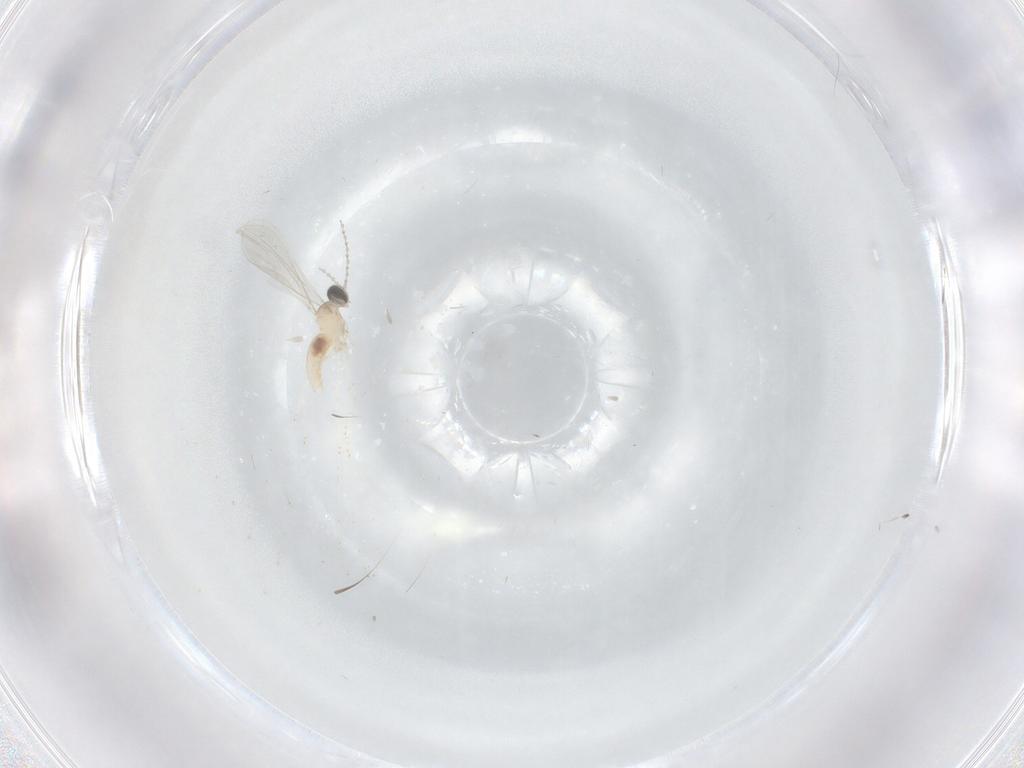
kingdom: Animalia
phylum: Arthropoda
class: Insecta
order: Diptera
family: Cecidomyiidae
